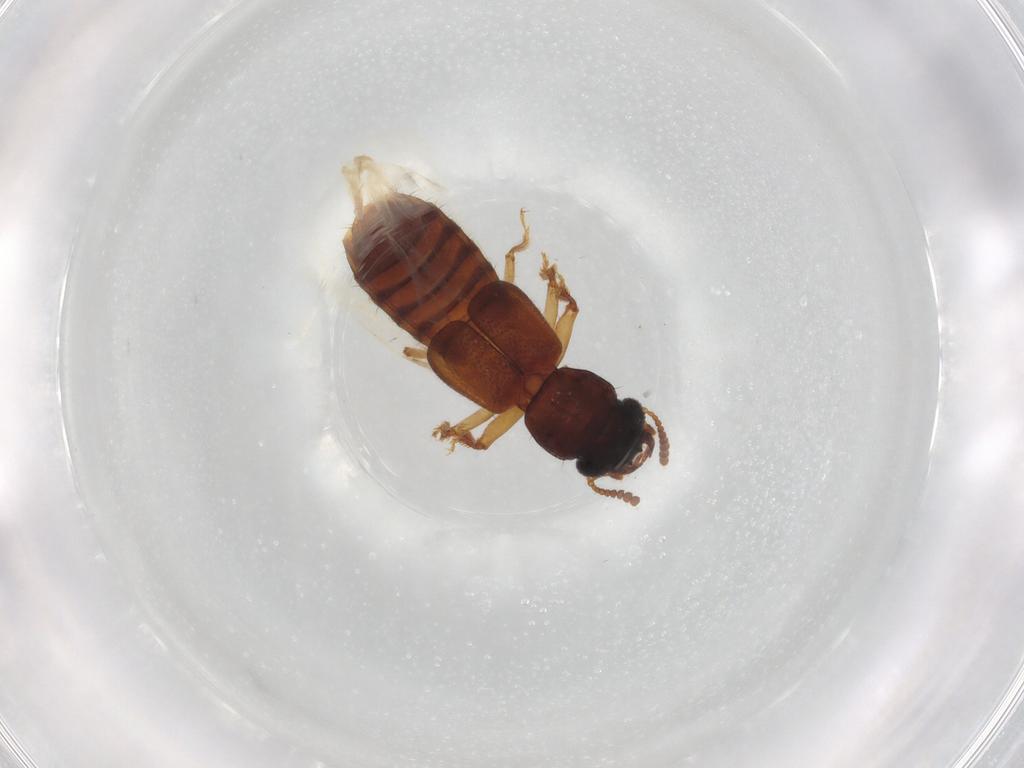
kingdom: Animalia
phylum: Arthropoda
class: Insecta
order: Coleoptera
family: Staphylinidae
